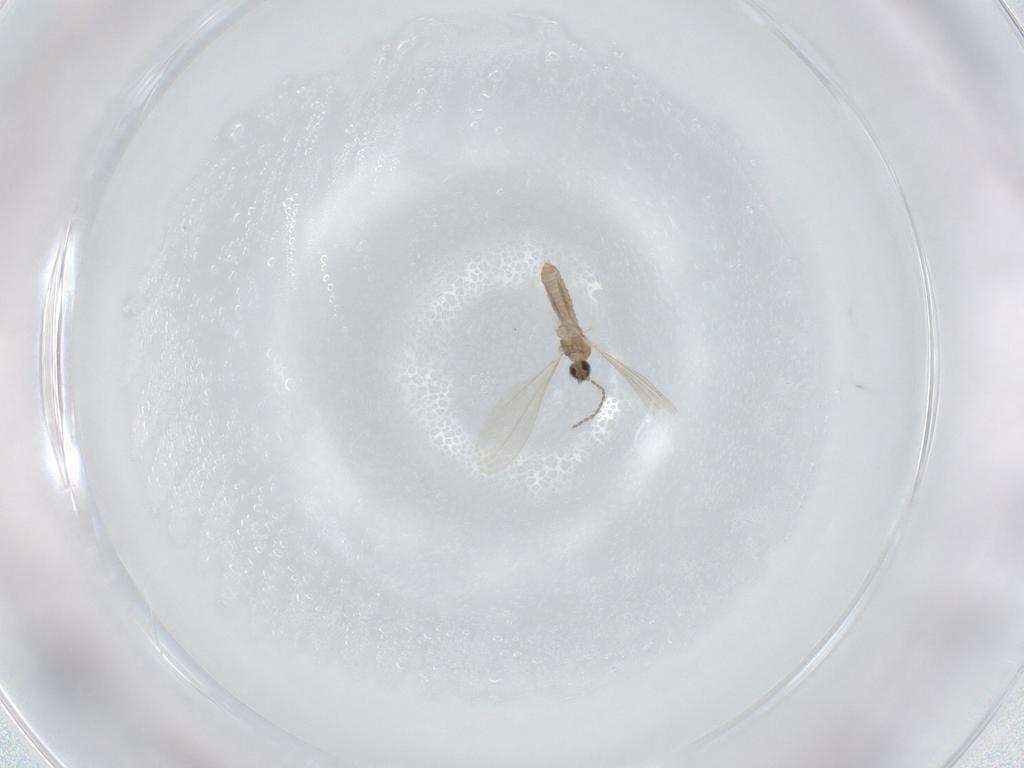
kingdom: Animalia
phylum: Arthropoda
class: Insecta
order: Diptera
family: Cecidomyiidae
